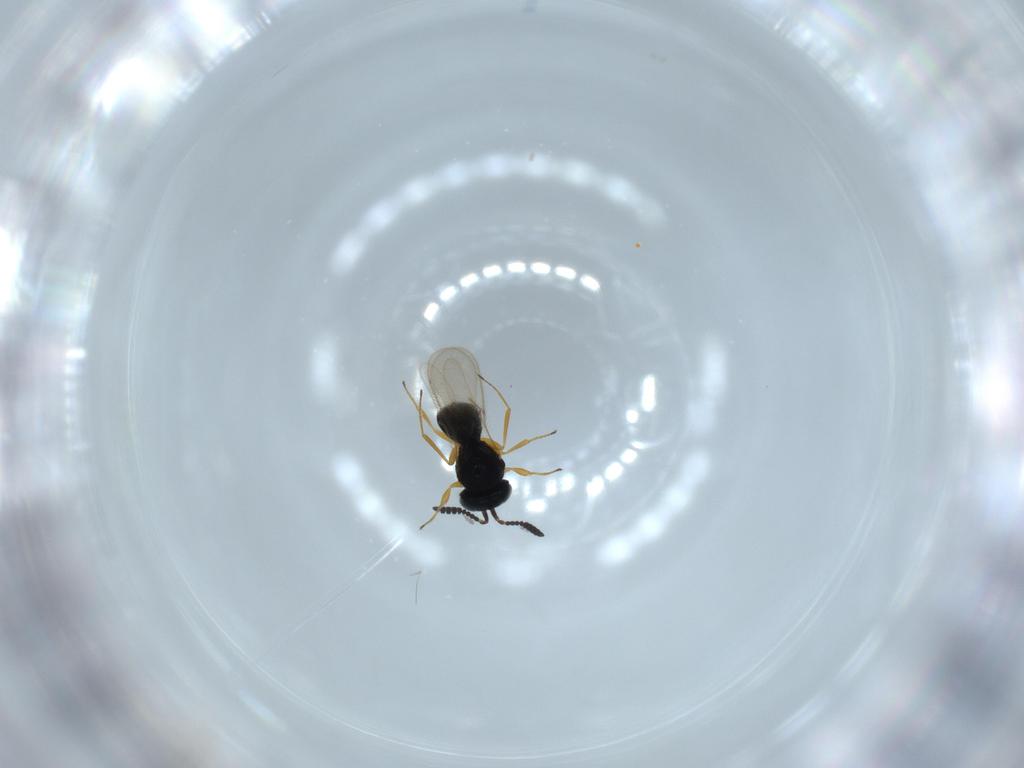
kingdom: Animalia
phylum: Arthropoda
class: Insecta
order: Hymenoptera
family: Scelionidae
